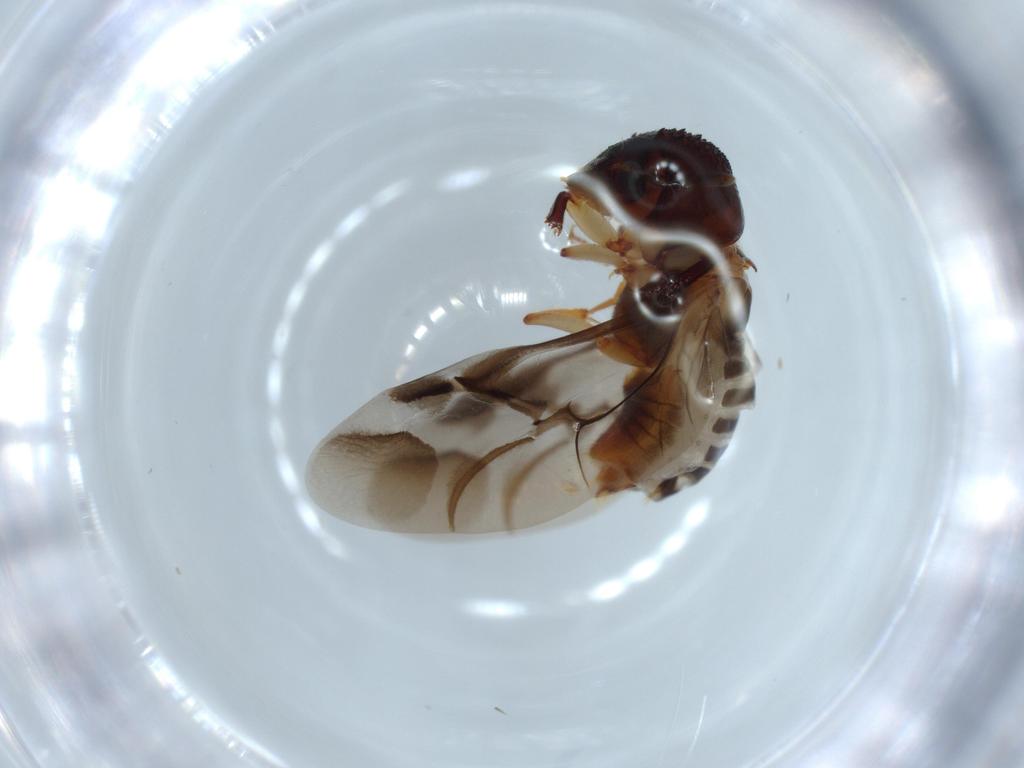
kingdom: Animalia
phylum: Arthropoda
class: Insecta
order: Coleoptera
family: Bostrichidae
